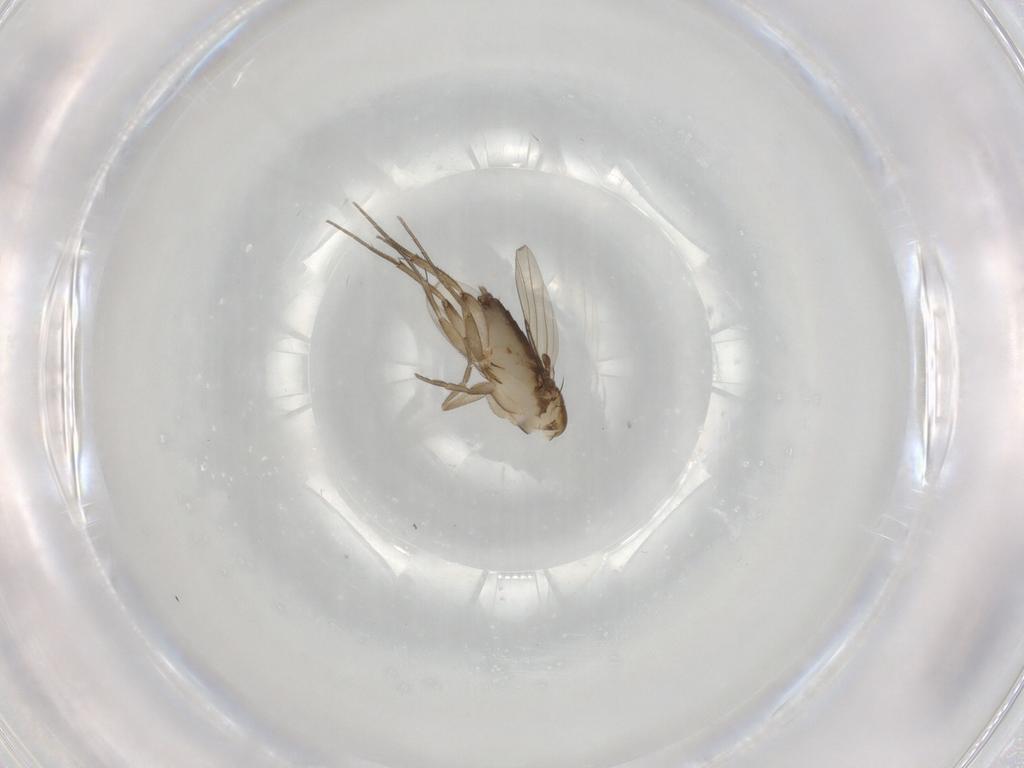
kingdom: Animalia
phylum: Arthropoda
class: Insecta
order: Diptera
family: Phoridae
